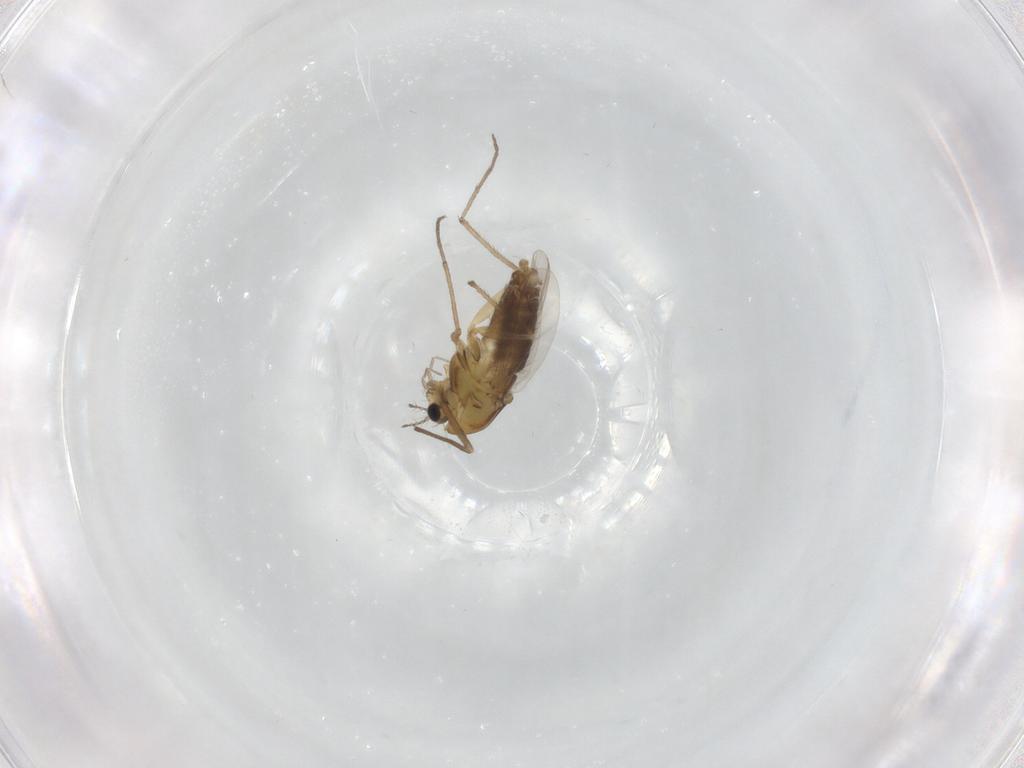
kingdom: Animalia
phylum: Arthropoda
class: Insecta
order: Diptera
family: Chironomidae
